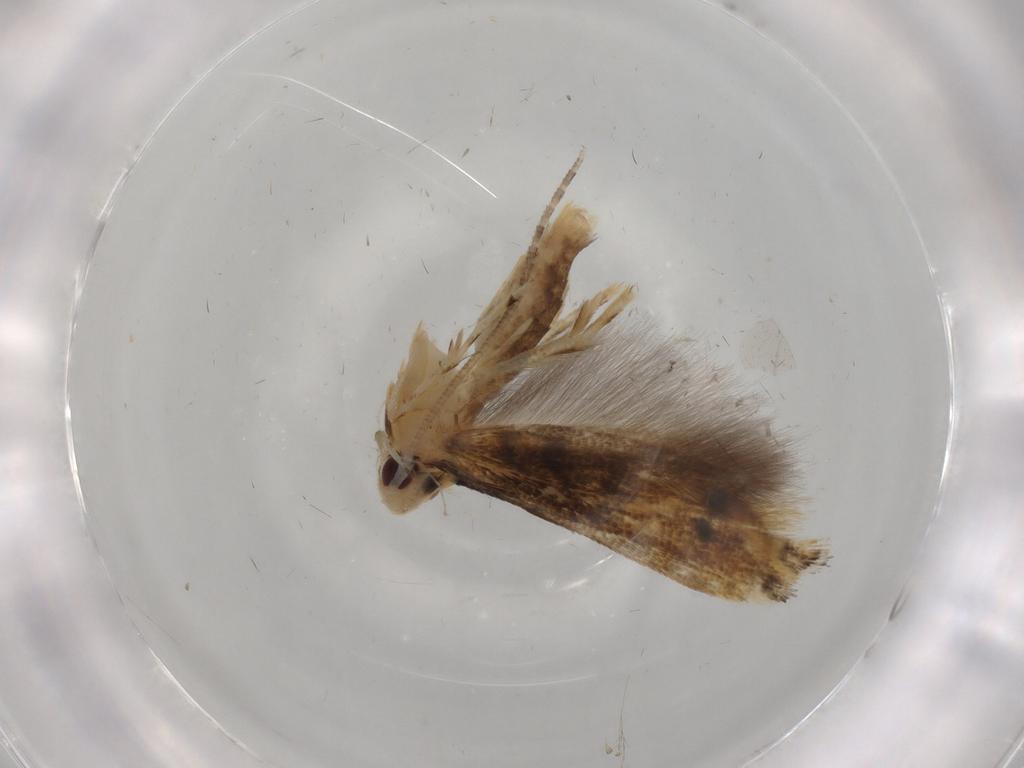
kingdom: Animalia
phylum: Arthropoda
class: Insecta
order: Lepidoptera
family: Momphidae
